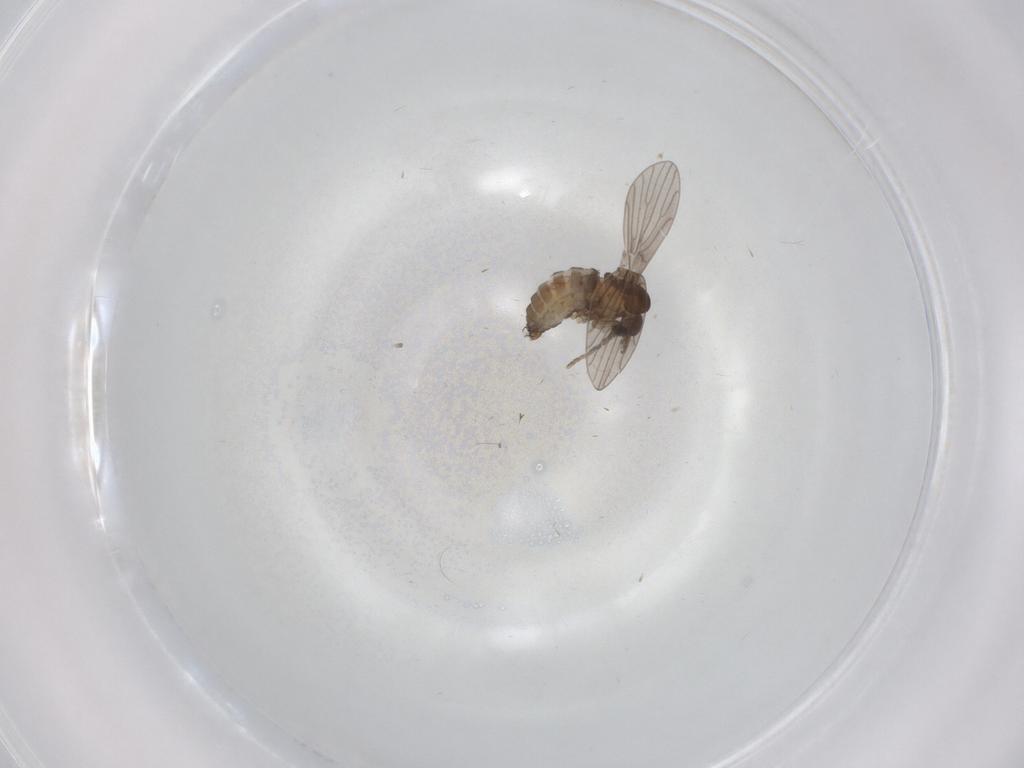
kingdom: Animalia
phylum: Arthropoda
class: Insecta
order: Diptera
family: Psychodidae
